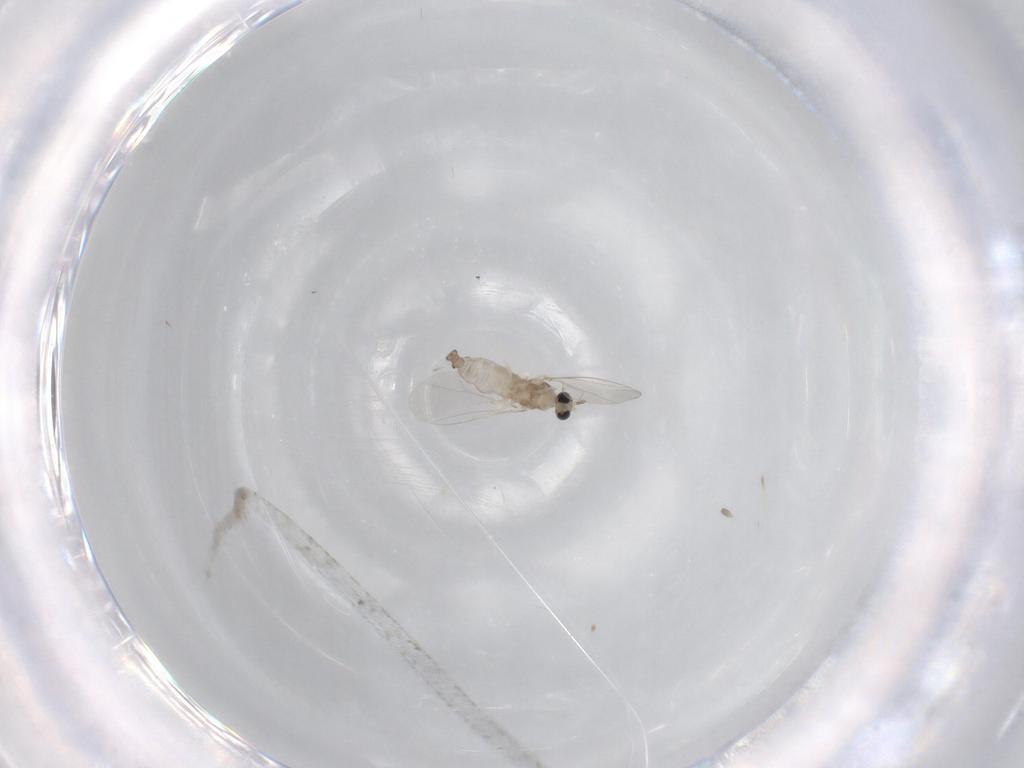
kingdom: Animalia
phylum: Arthropoda
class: Insecta
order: Diptera
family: Cecidomyiidae
